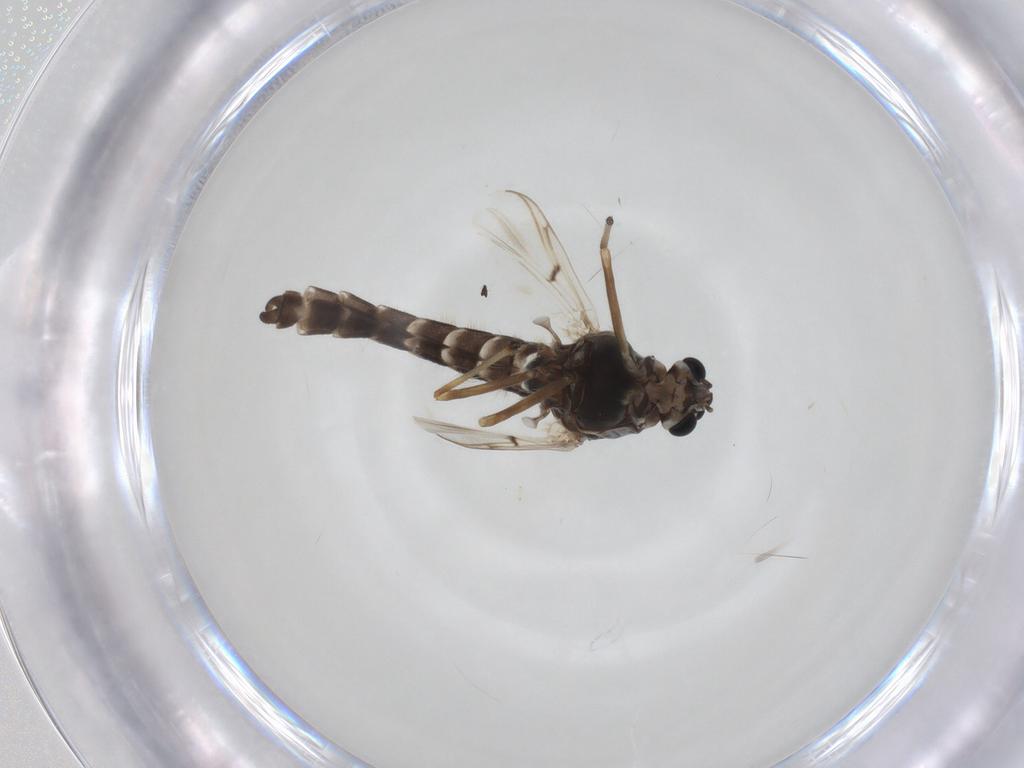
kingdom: Animalia
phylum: Arthropoda
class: Insecta
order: Diptera
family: Chironomidae
